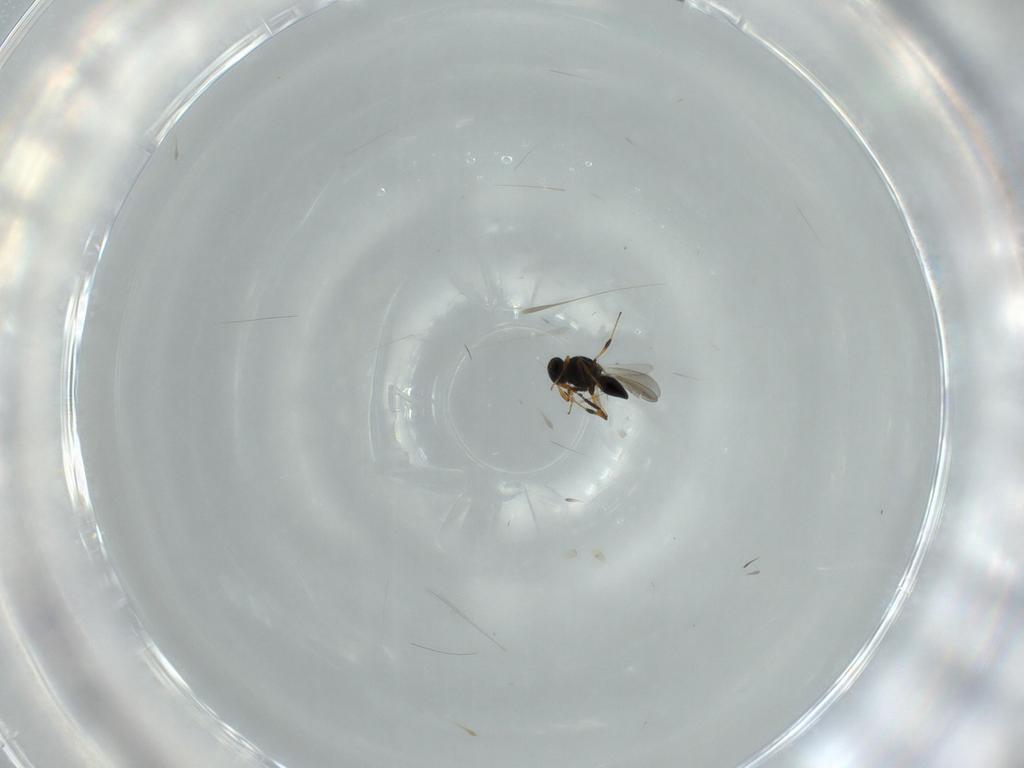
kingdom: Animalia
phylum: Arthropoda
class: Insecta
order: Hymenoptera
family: Platygastridae
